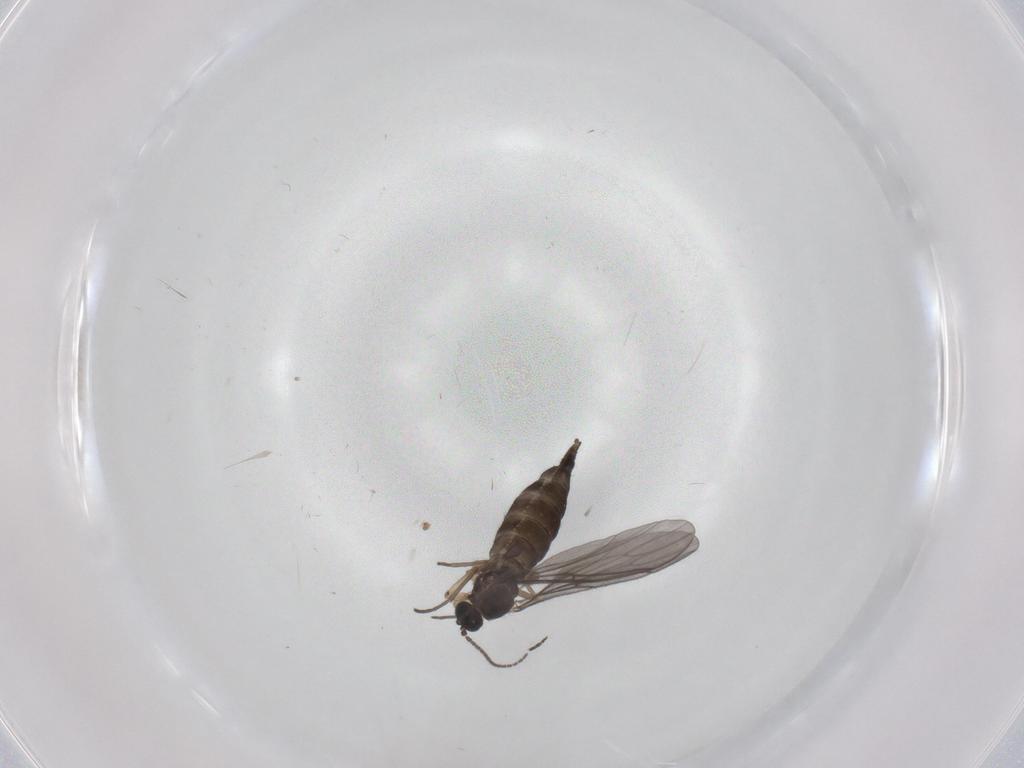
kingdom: Animalia
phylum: Arthropoda
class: Insecta
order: Diptera
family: Sciaridae
